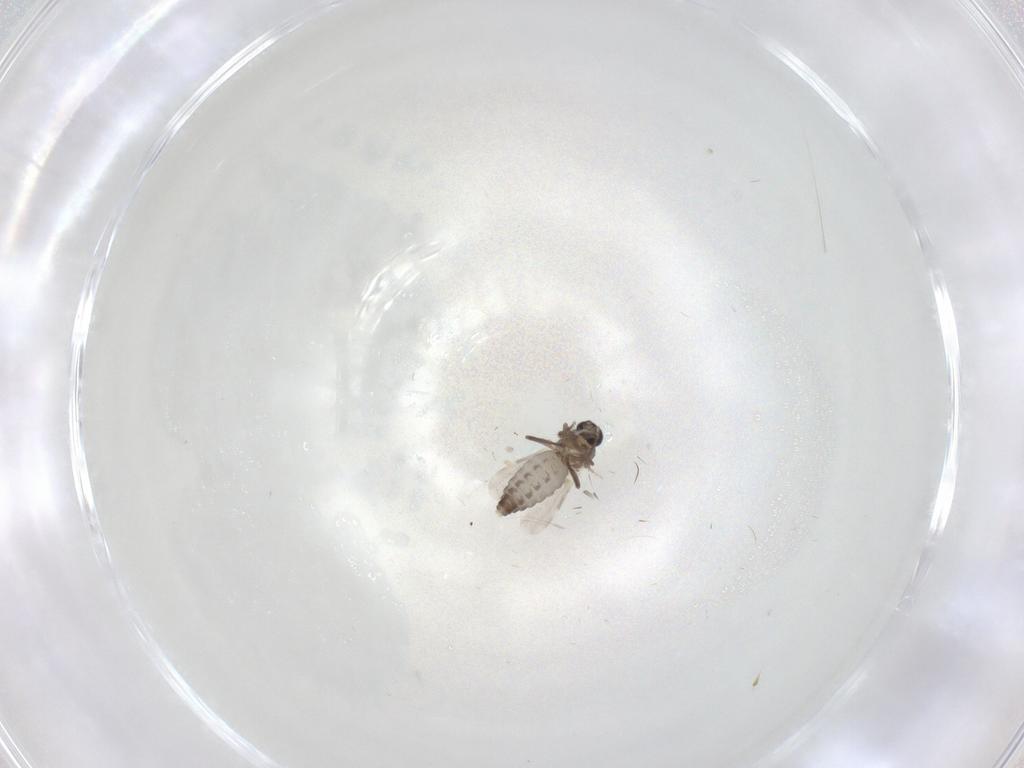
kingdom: Animalia
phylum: Arthropoda
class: Insecta
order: Diptera
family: Ceratopogonidae
